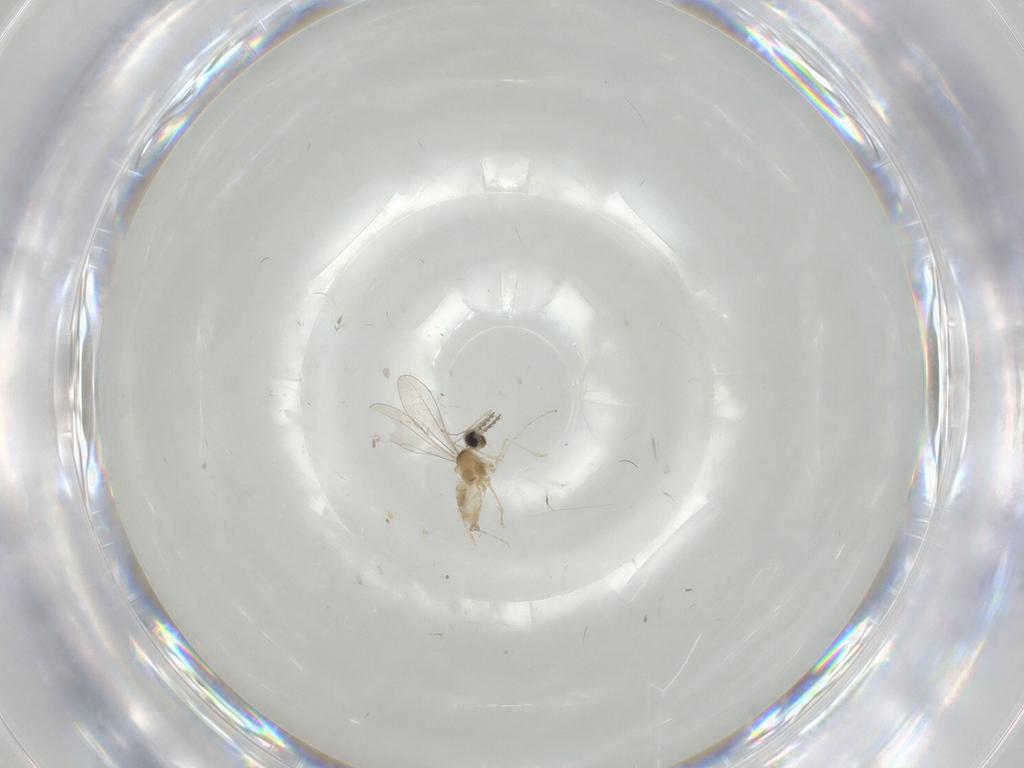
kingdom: Animalia
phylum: Arthropoda
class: Insecta
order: Diptera
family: Cecidomyiidae
